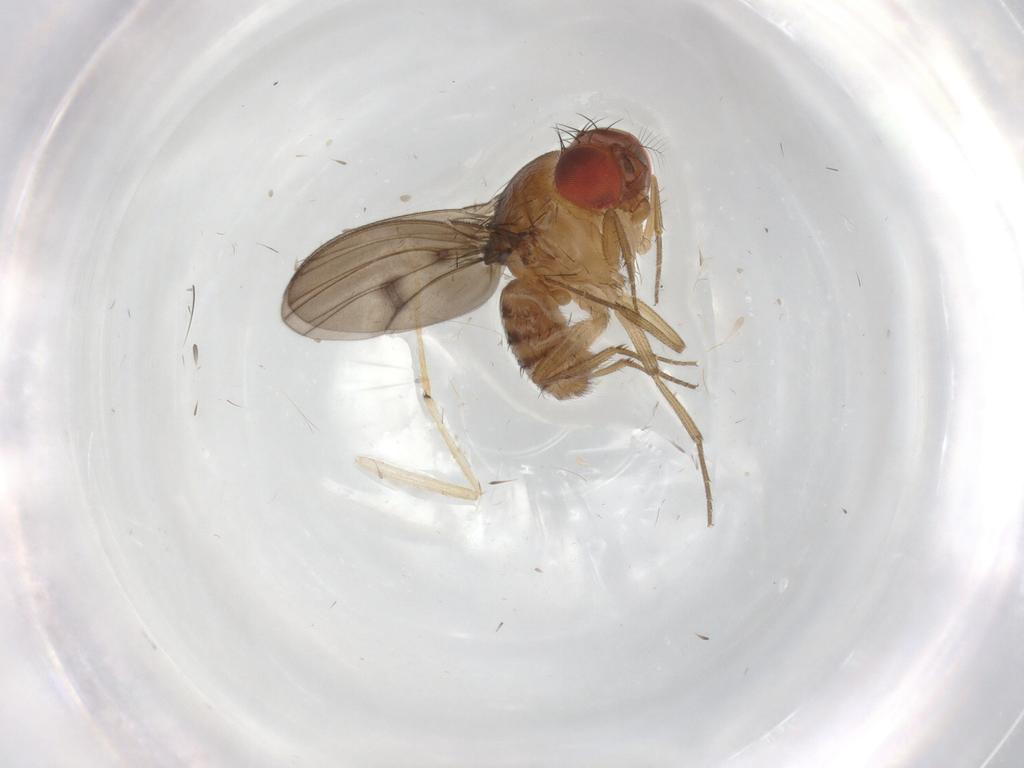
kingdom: Animalia
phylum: Arthropoda
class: Insecta
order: Diptera
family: Drosophilidae
